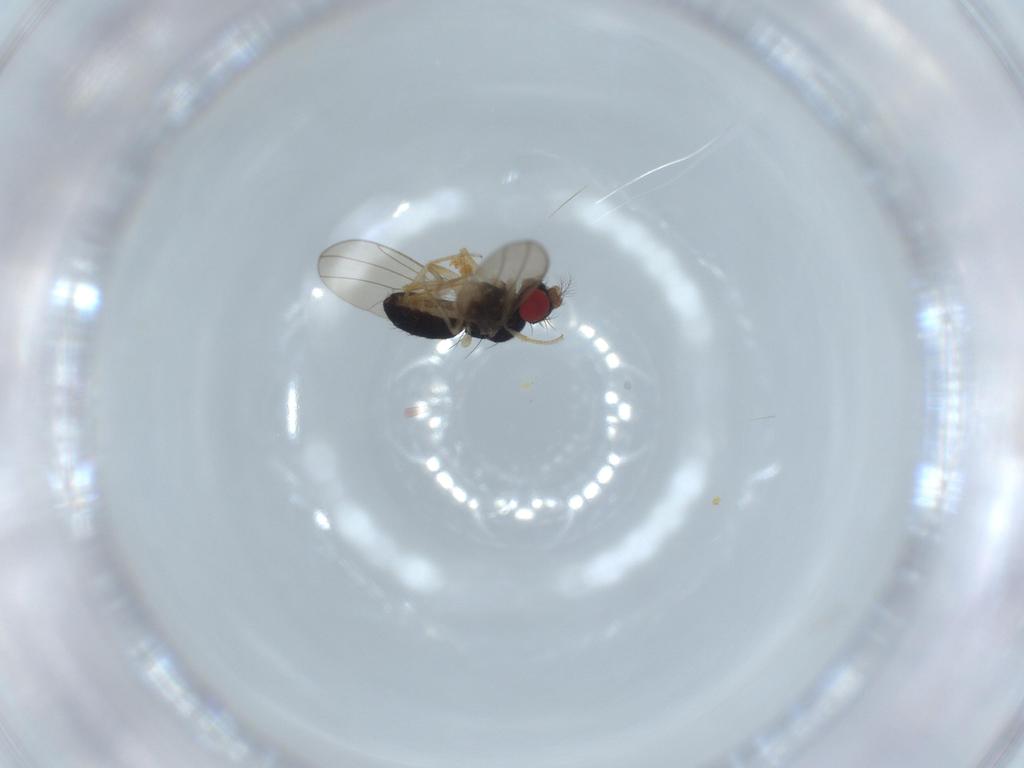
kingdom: Animalia
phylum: Arthropoda
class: Insecta
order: Diptera
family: Drosophilidae
